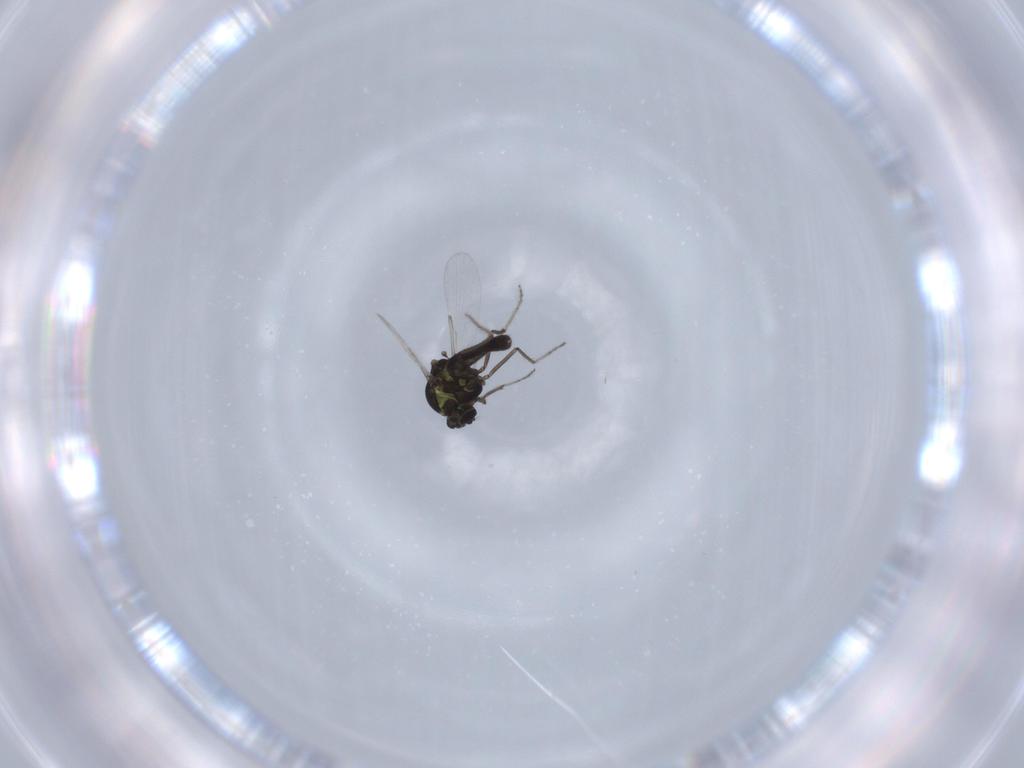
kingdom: Animalia
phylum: Arthropoda
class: Insecta
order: Diptera
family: Ceratopogonidae
